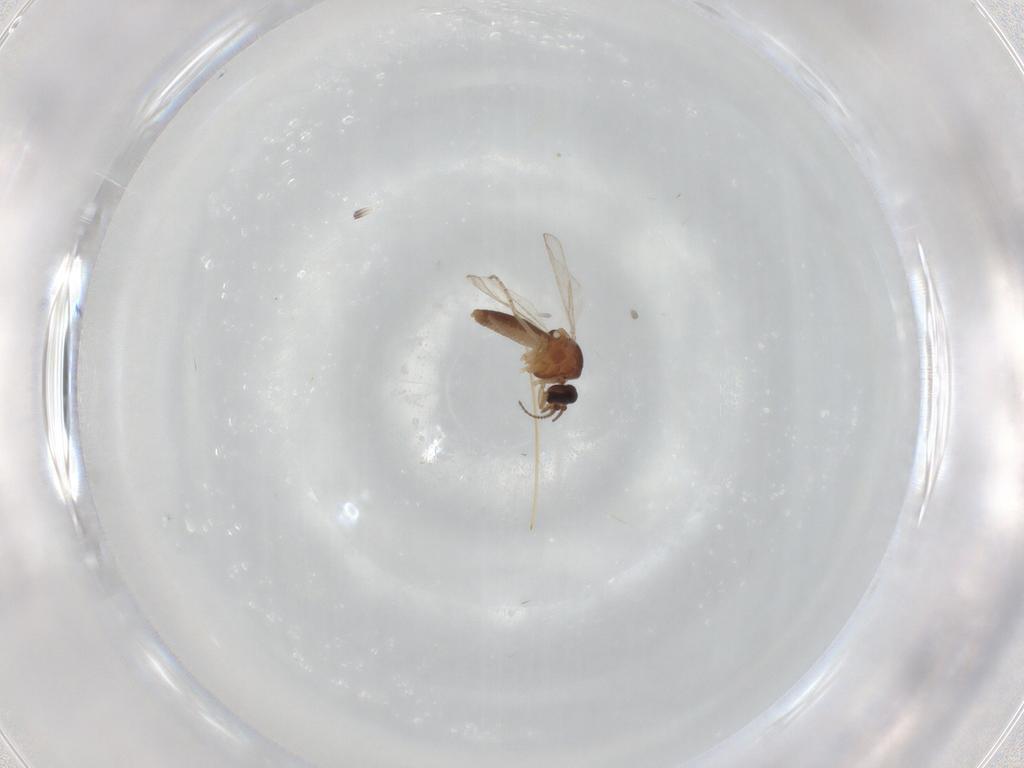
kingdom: Animalia
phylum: Arthropoda
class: Insecta
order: Diptera
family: Ceratopogonidae
